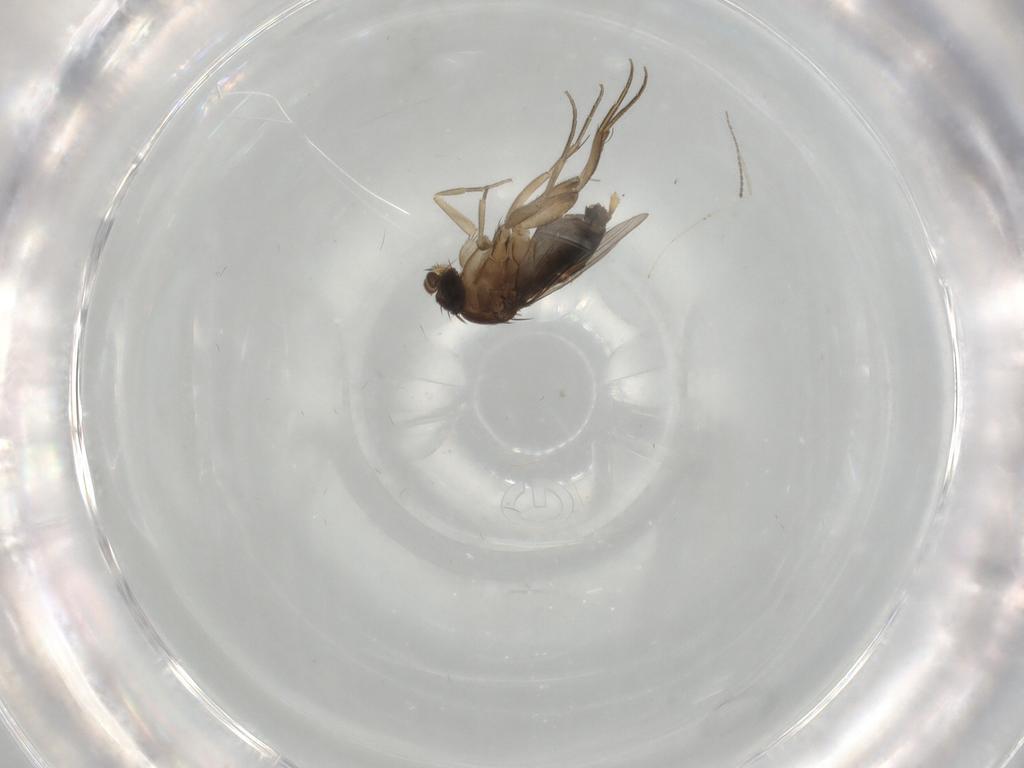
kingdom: Animalia
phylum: Arthropoda
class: Insecta
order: Diptera
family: Phoridae
